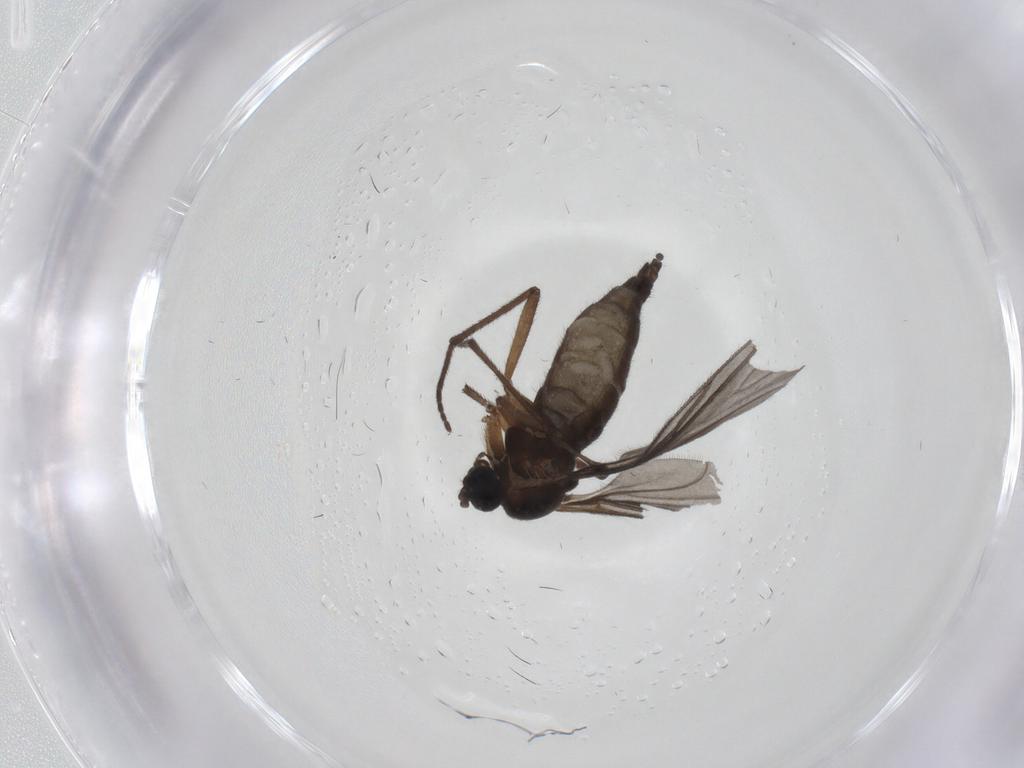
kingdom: Animalia
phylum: Arthropoda
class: Insecta
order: Diptera
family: Sciaridae
